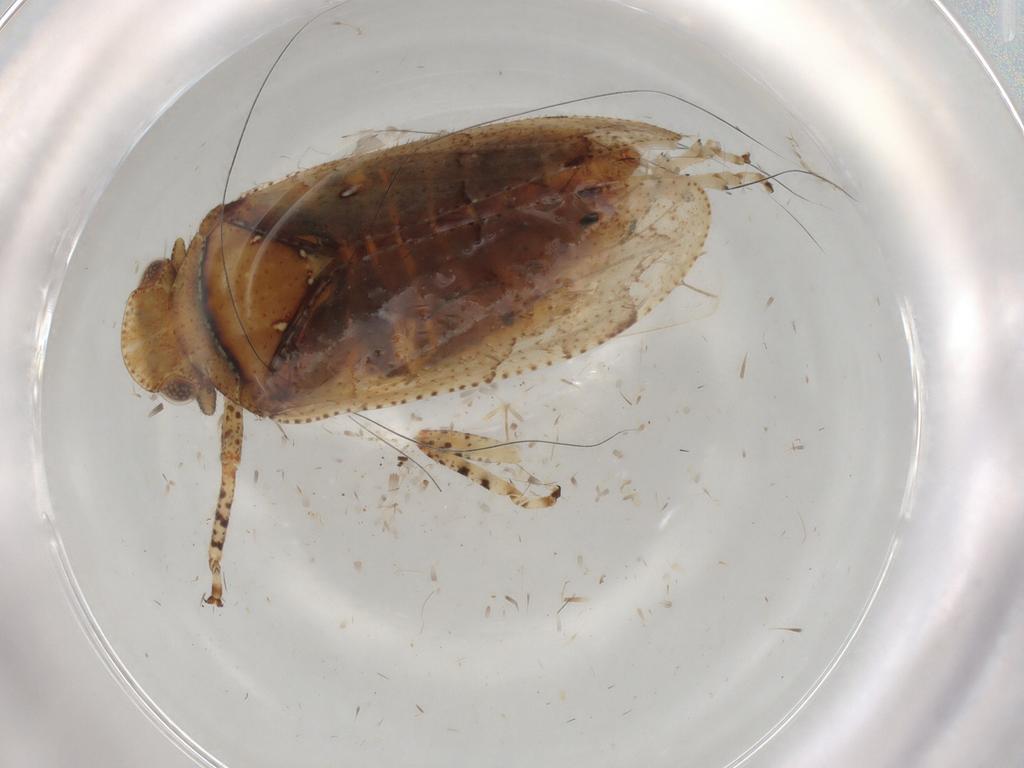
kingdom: Animalia
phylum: Arthropoda
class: Insecta
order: Hemiptera
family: Tettigometridae
